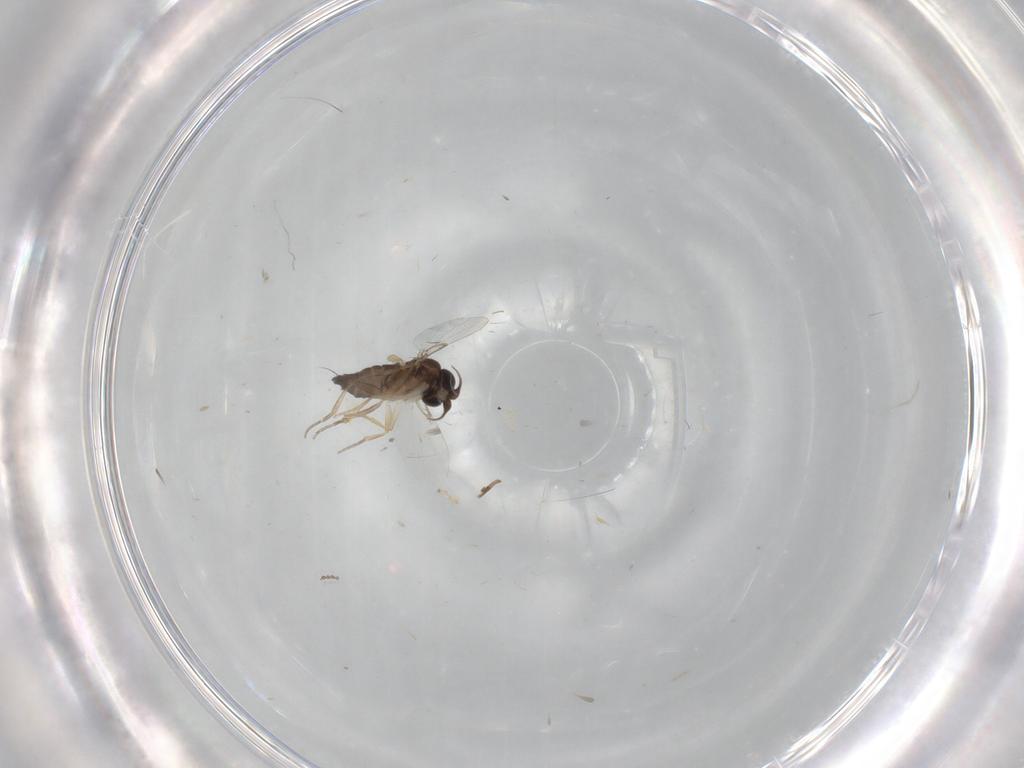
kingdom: Animalia
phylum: Arthropoda
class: Insecta
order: Diptera
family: Cecidomyiidae
